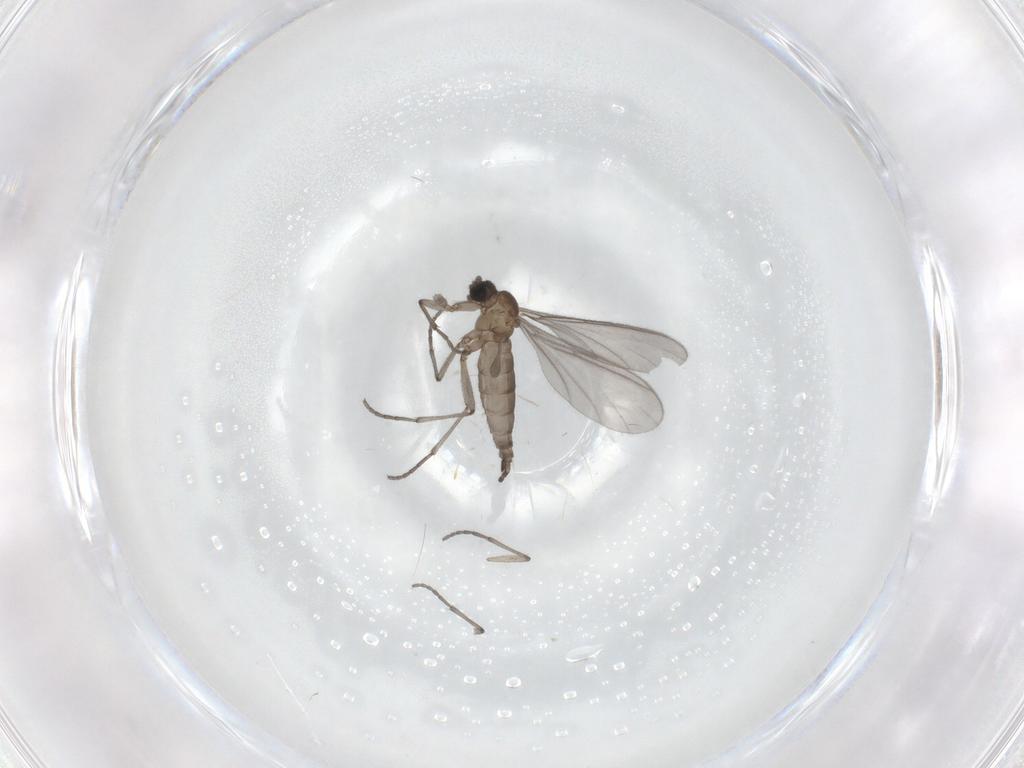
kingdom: Animalia
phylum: Arthropoda
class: Insecta
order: Diptera
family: Sciaridae
